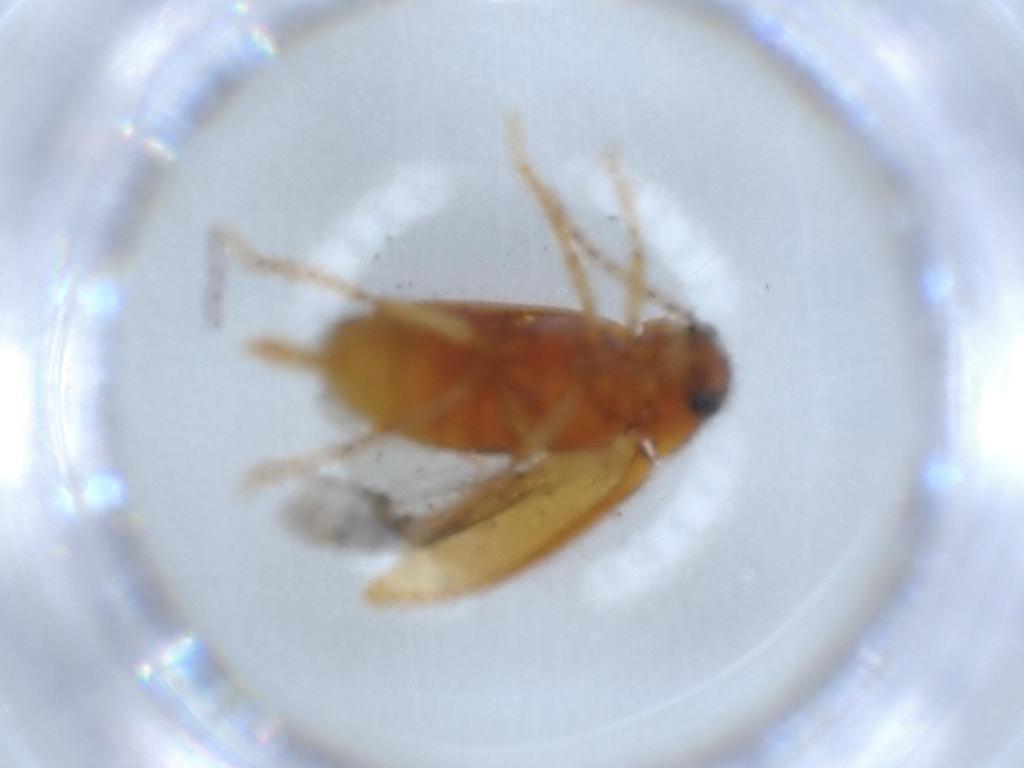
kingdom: Animalia
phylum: Arthropoda
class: Insecta
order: Coleoptera
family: Ptilodactylidae
